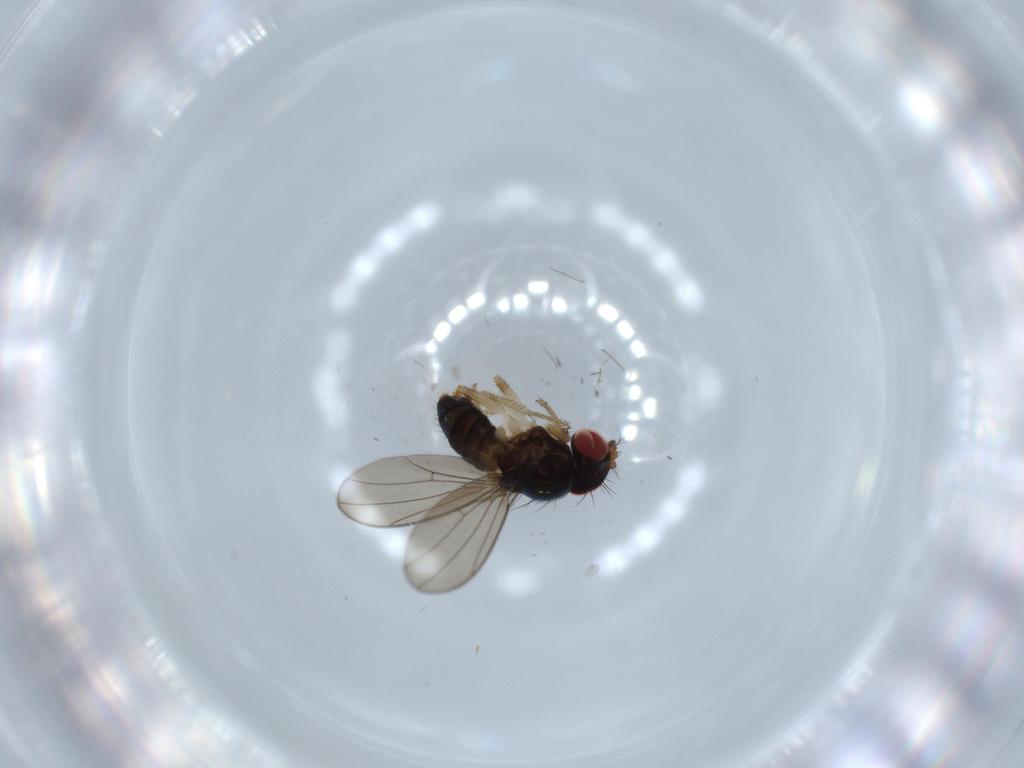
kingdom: Animalia
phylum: Arthropoda
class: Insecta
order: Diptera
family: Drosophilidae
